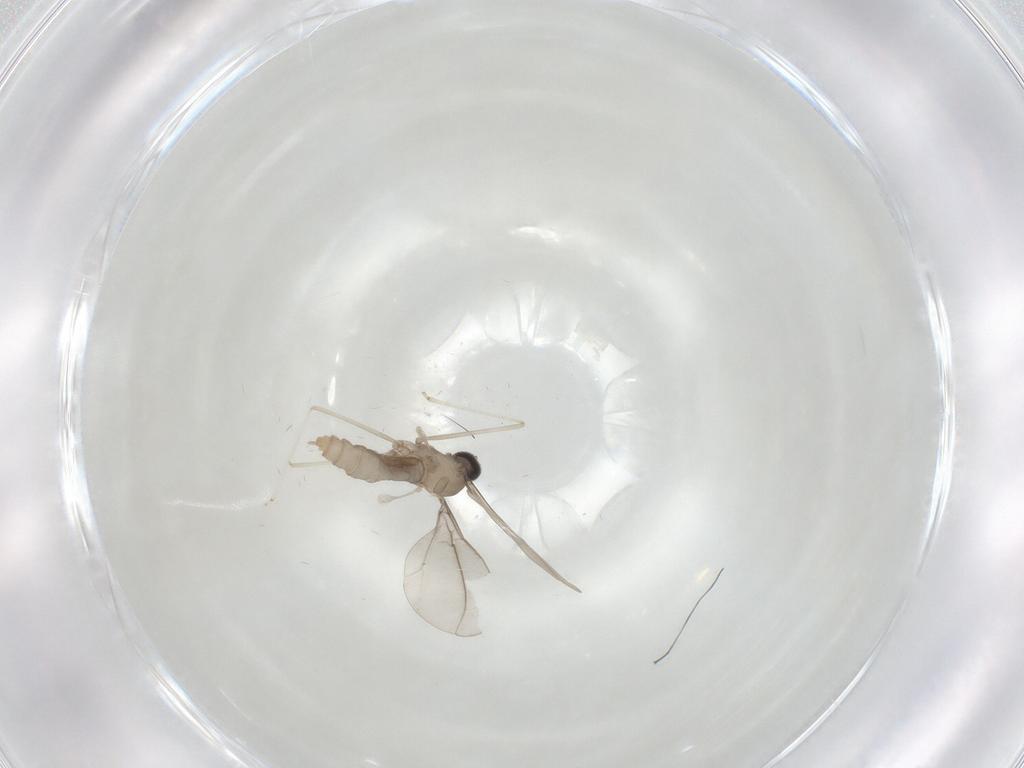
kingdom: Animalia
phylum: Arthropoda
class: Insecta
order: Diptera
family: Cecidomyiidae
